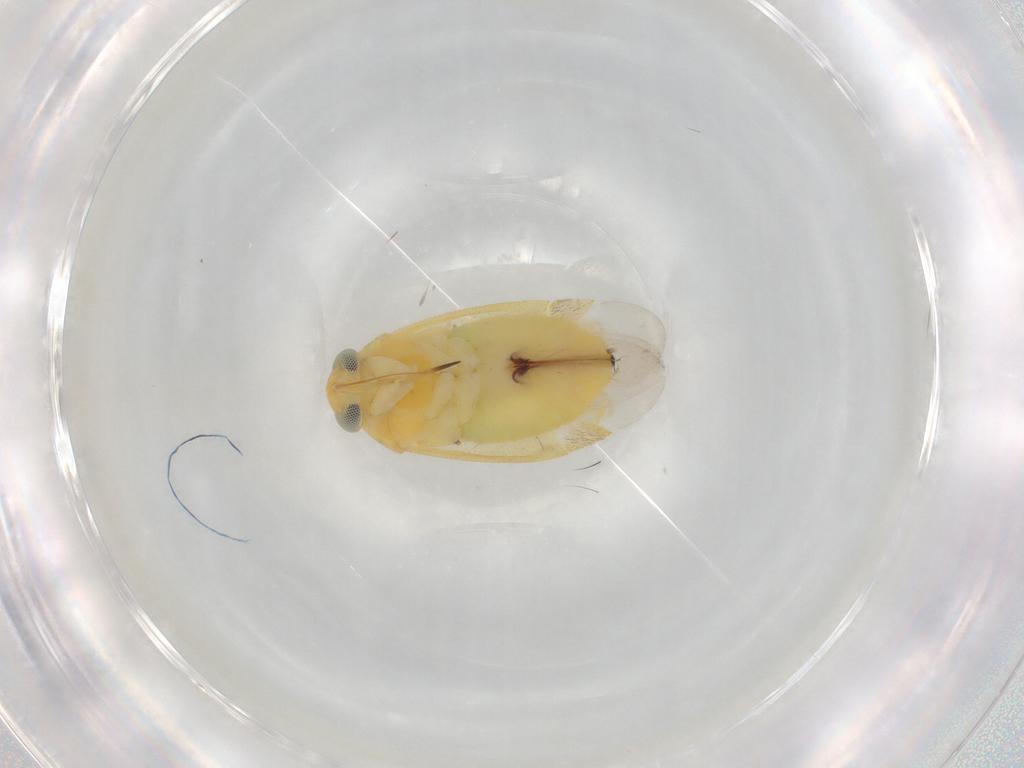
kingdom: Animalia
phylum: Arthropoda
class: Insecta
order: Hemiptera
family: Miridae
